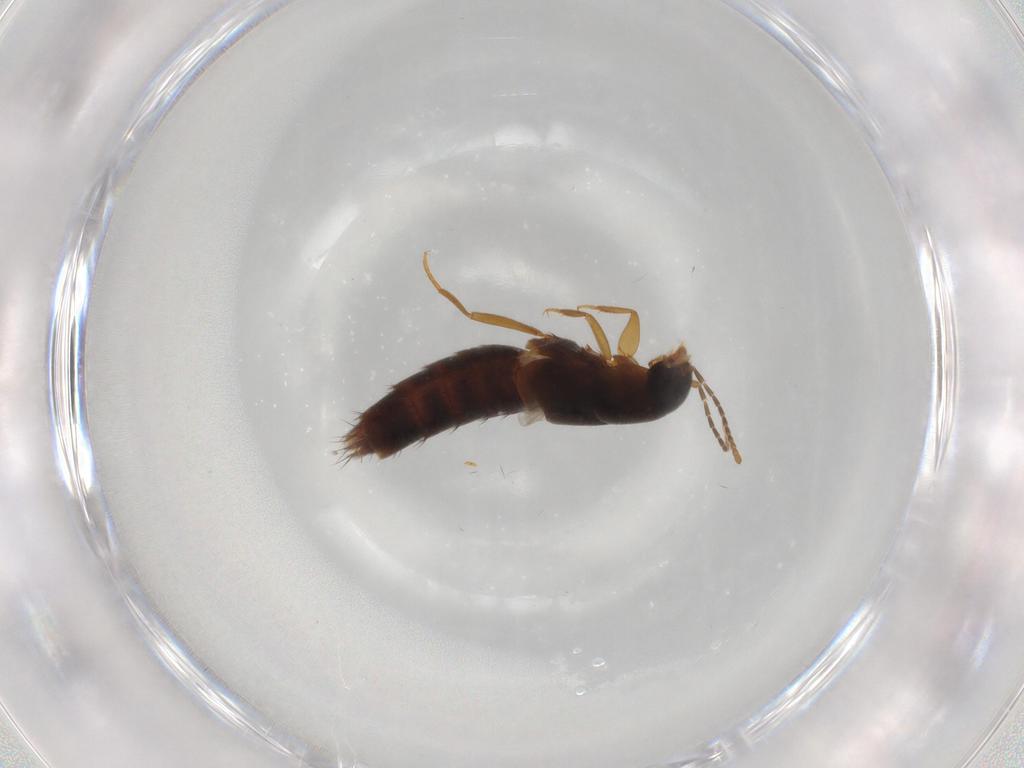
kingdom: Animalia
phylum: Arthropoda
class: Insecta
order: Coleoptera
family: Staphylinidae
